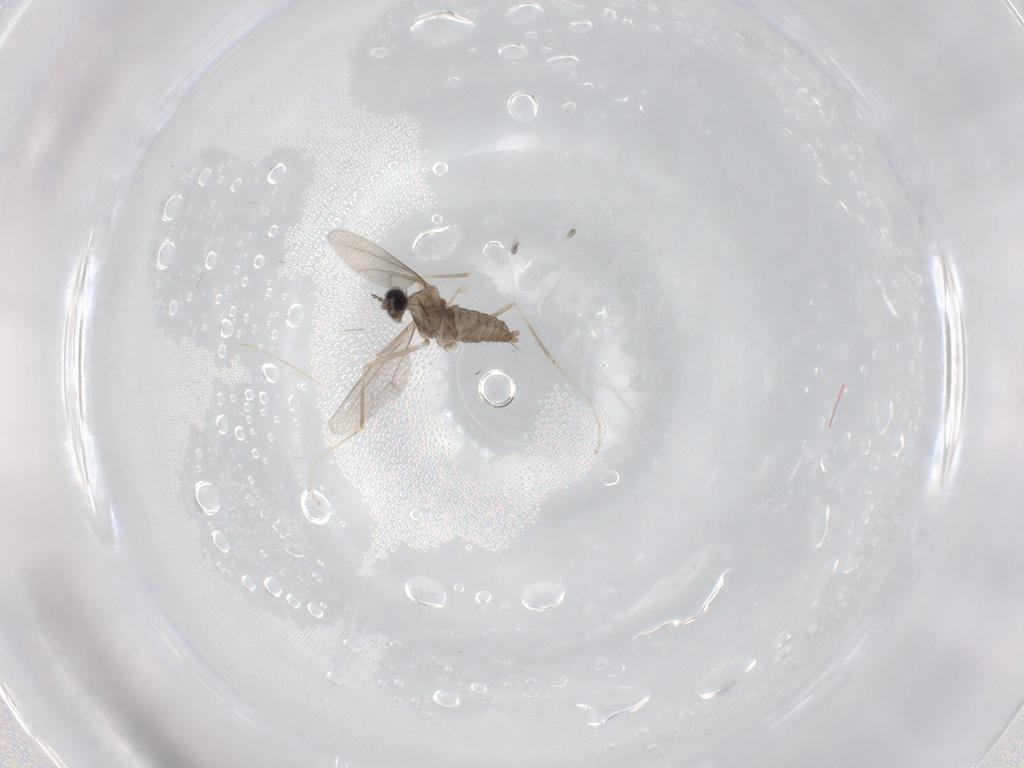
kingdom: Animalia
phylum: Arthropoda
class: Insecta
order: Diptera
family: Cecidomyiidae
